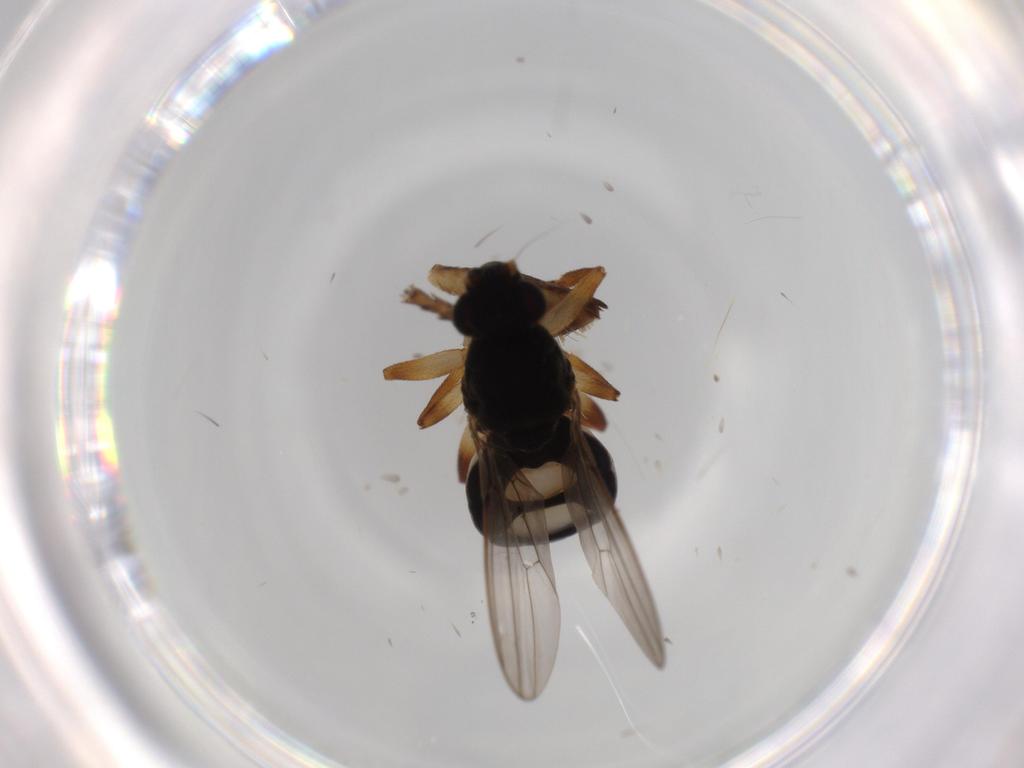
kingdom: Animalia
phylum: Arthropoda
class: Insecta
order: Diptera
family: Sphaeroceridae
